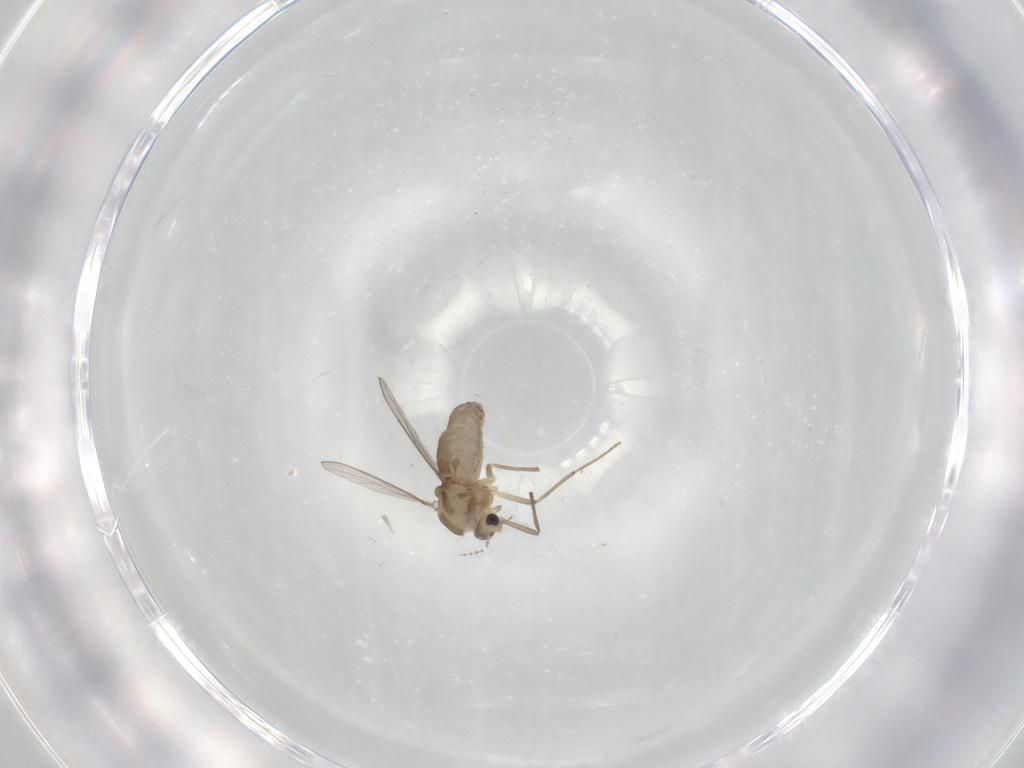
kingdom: Animalia
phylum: Arthropoda
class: Insecta
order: Diptera
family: Chironomidae
